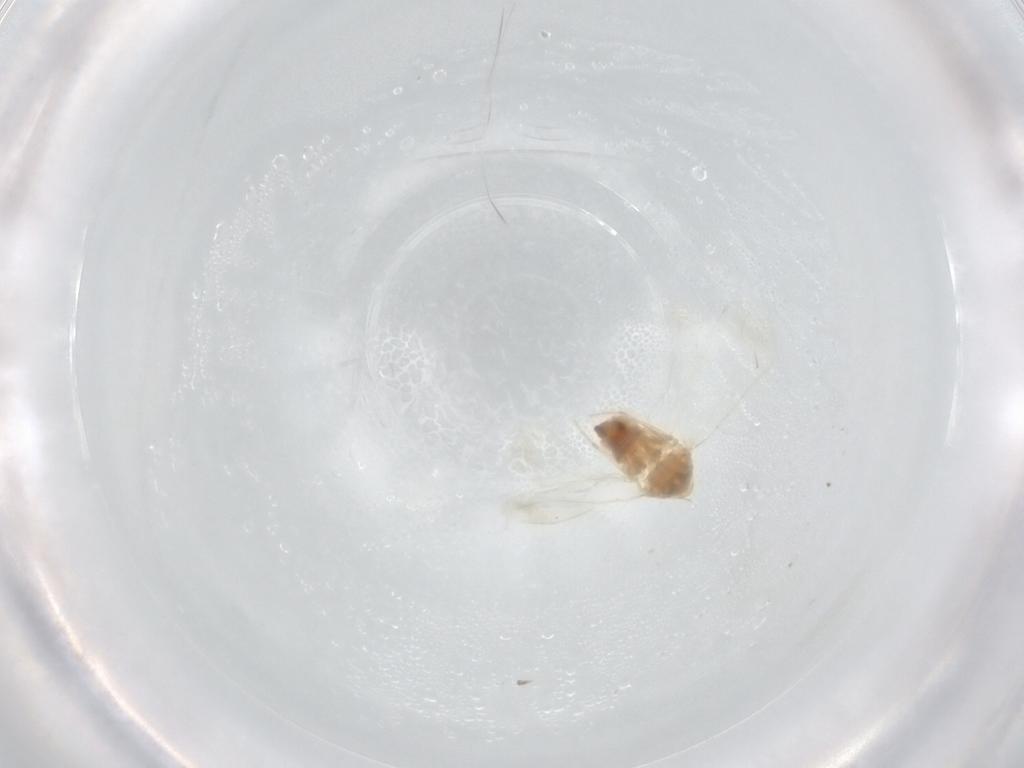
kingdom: Animalia
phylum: Arthropoda
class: Insecta
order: Hemiptera
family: Aleyrodidae
